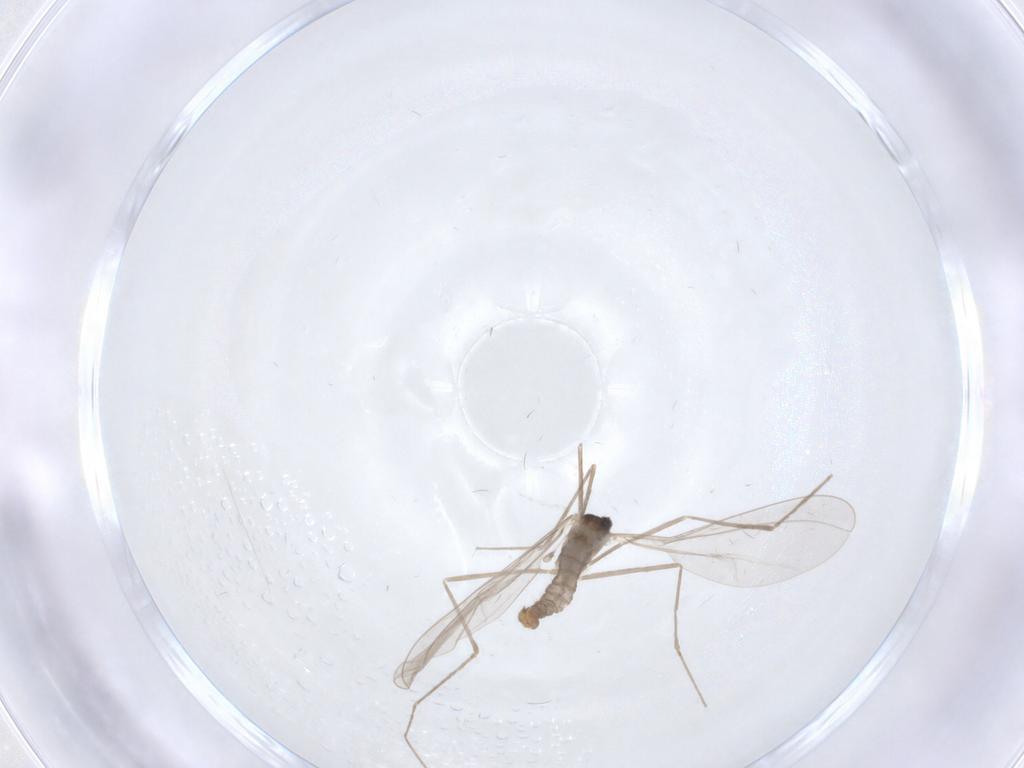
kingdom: Animalia
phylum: Arthropoda
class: Insecta
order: Diptera
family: Cecidomyiidae
